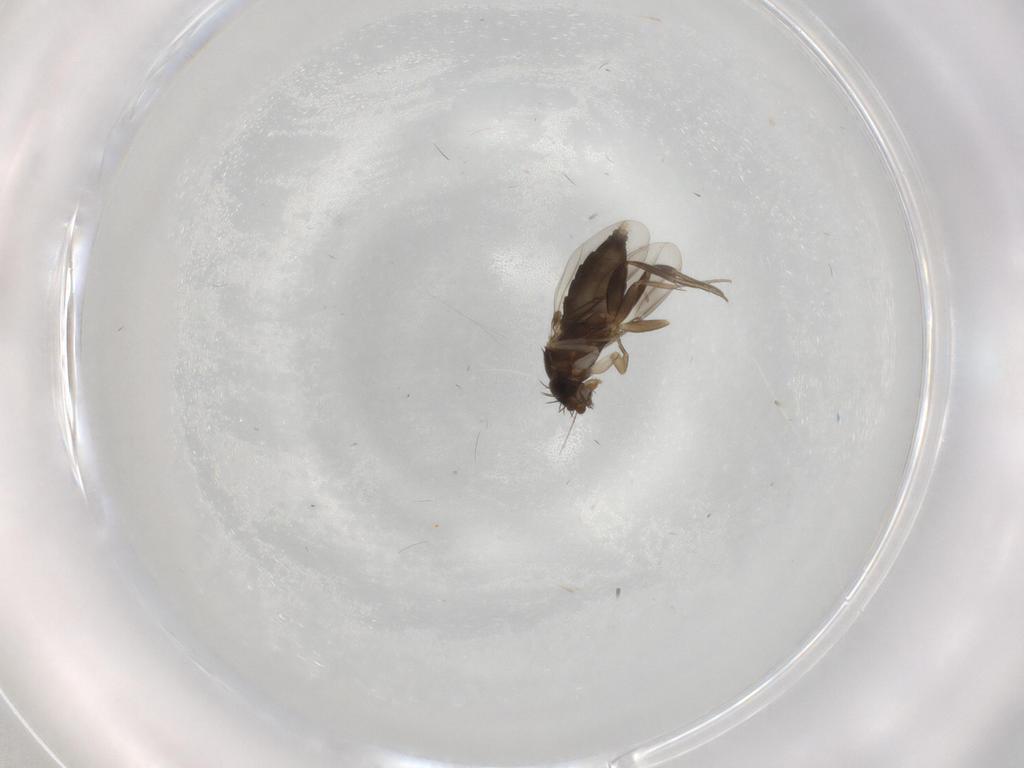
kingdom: Animalia
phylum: Arthropoda
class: Insecta
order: Diptera
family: Phoridae
